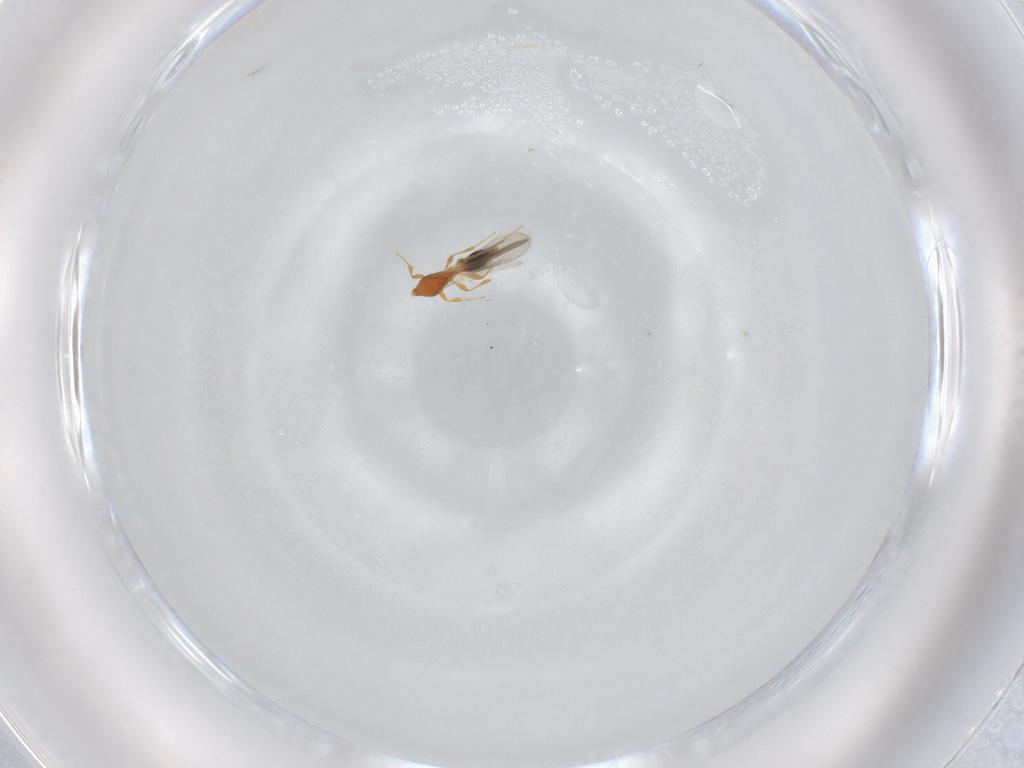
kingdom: Animalia
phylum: Arthropoda
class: Insecta
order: Hymenoptera
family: Platygastridae
